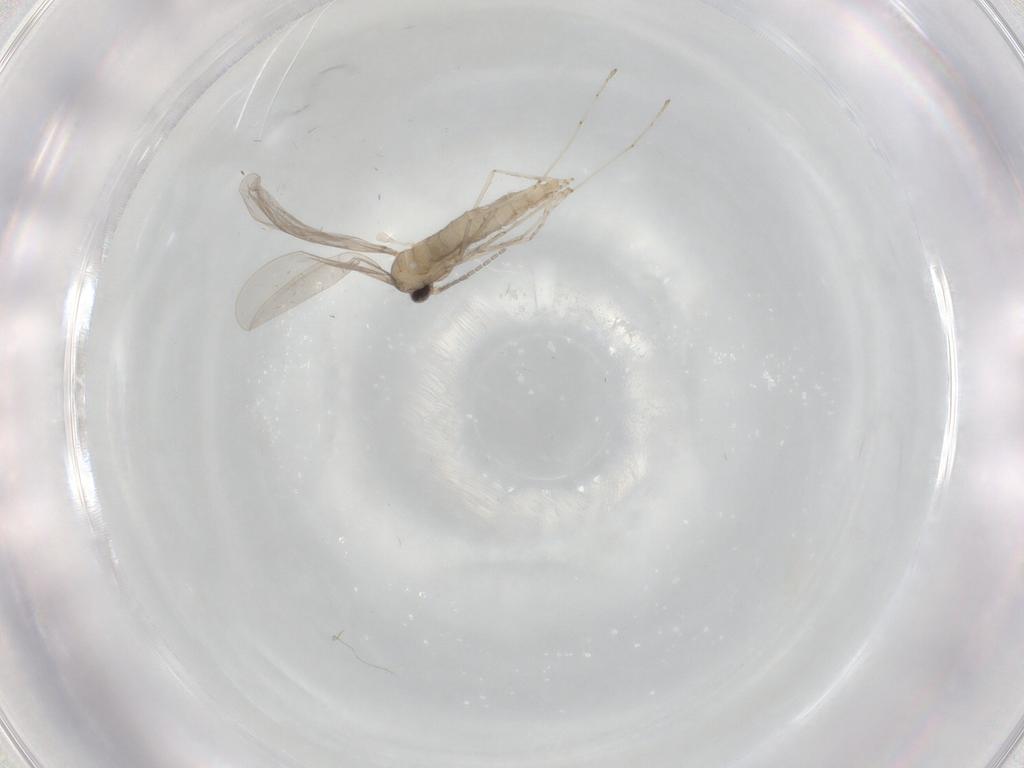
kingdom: Animalia
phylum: Arthropoda
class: Insecta
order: Diptera
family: Cecidomyiidae
